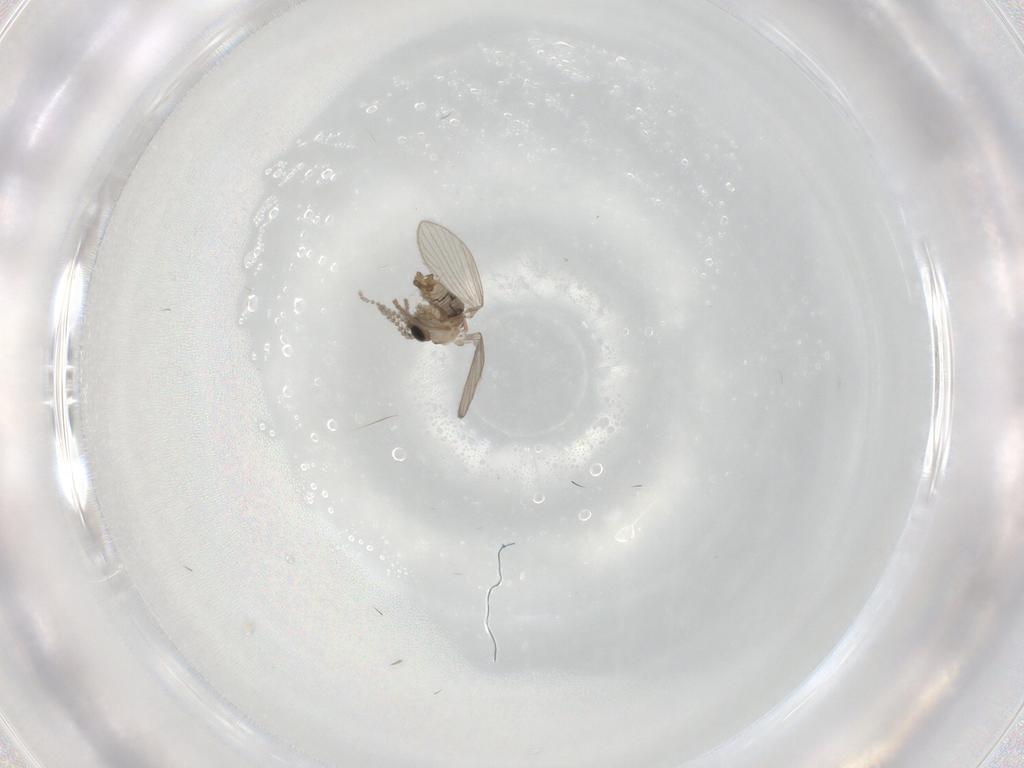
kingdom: Animalia
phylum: Arthropoda
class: Insecta
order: Diptera
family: Psychodidae
